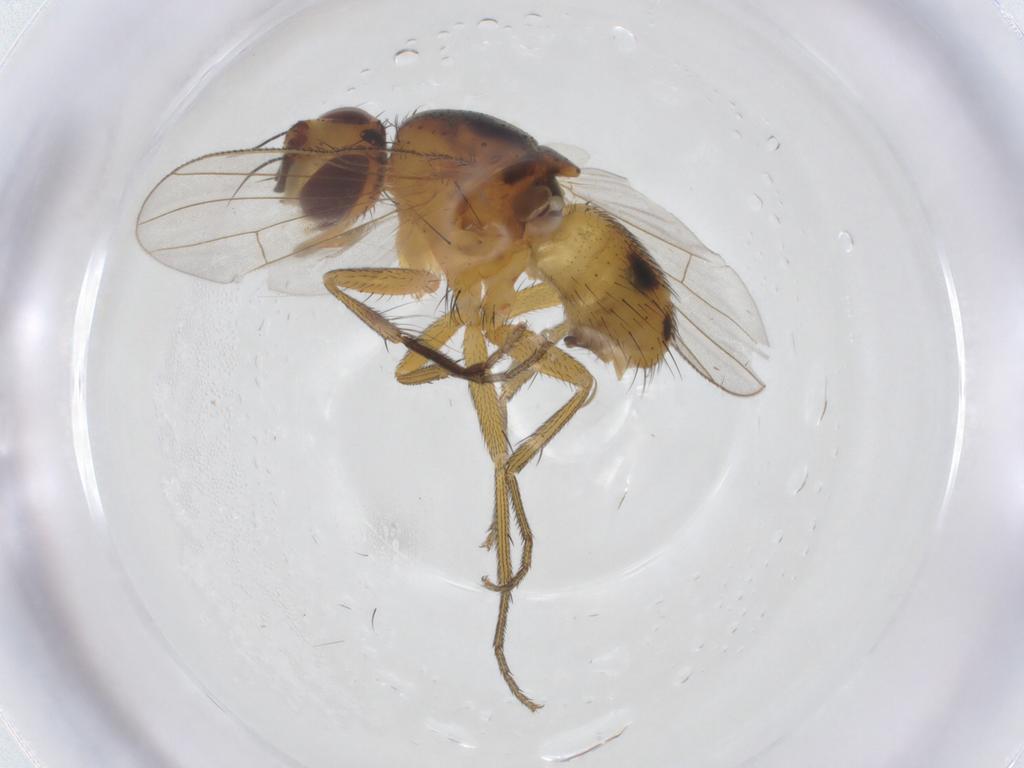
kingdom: Animalia
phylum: Arthropoda
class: Insecta
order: Diptera
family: Muscidae
